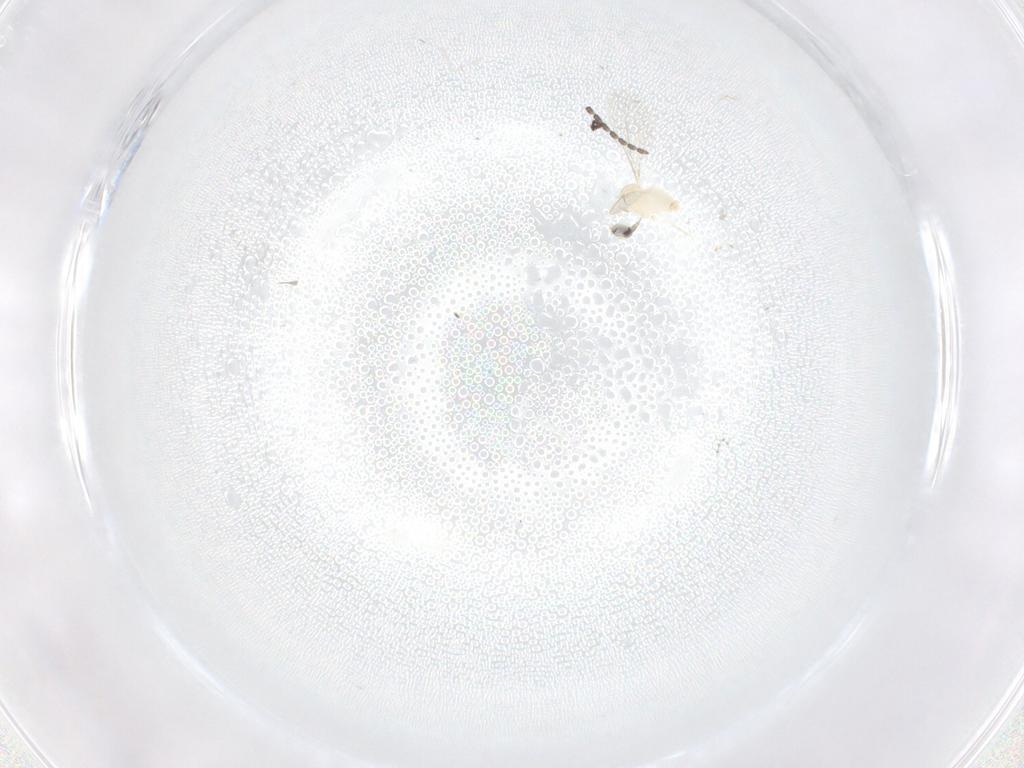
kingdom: Animalia
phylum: Arthropoda
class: Insecta
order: Diptera
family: Cecidomyiidae
